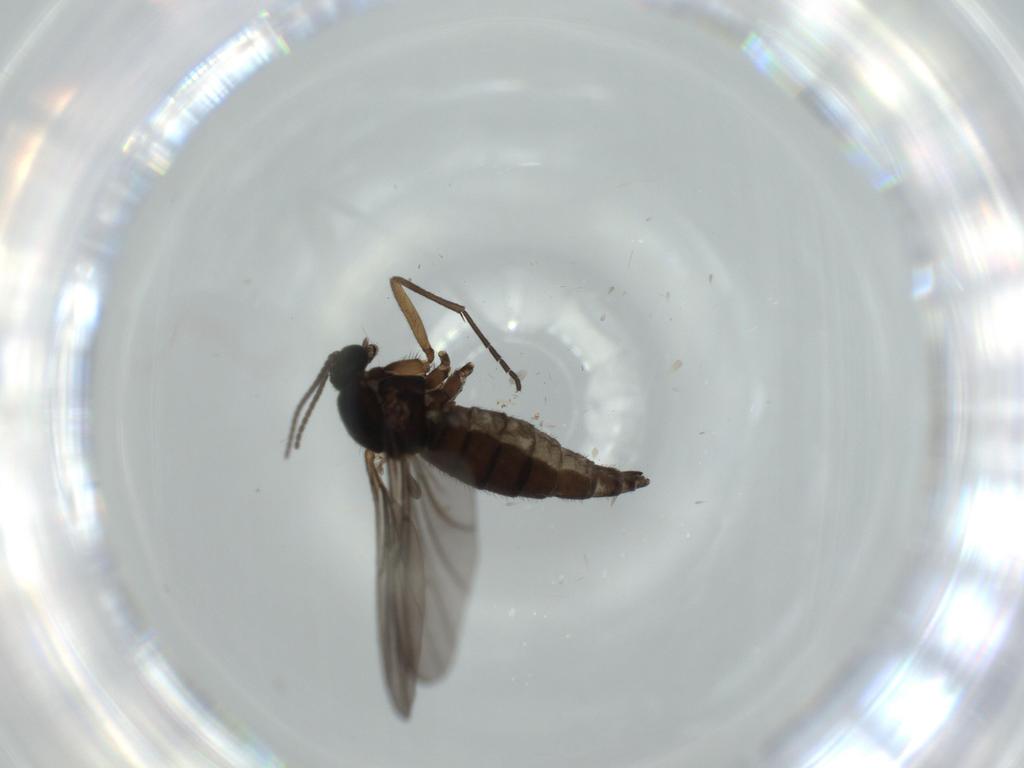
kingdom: Animalia
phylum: Arthropoda
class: Insecta
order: Diptera
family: Sciaridae
